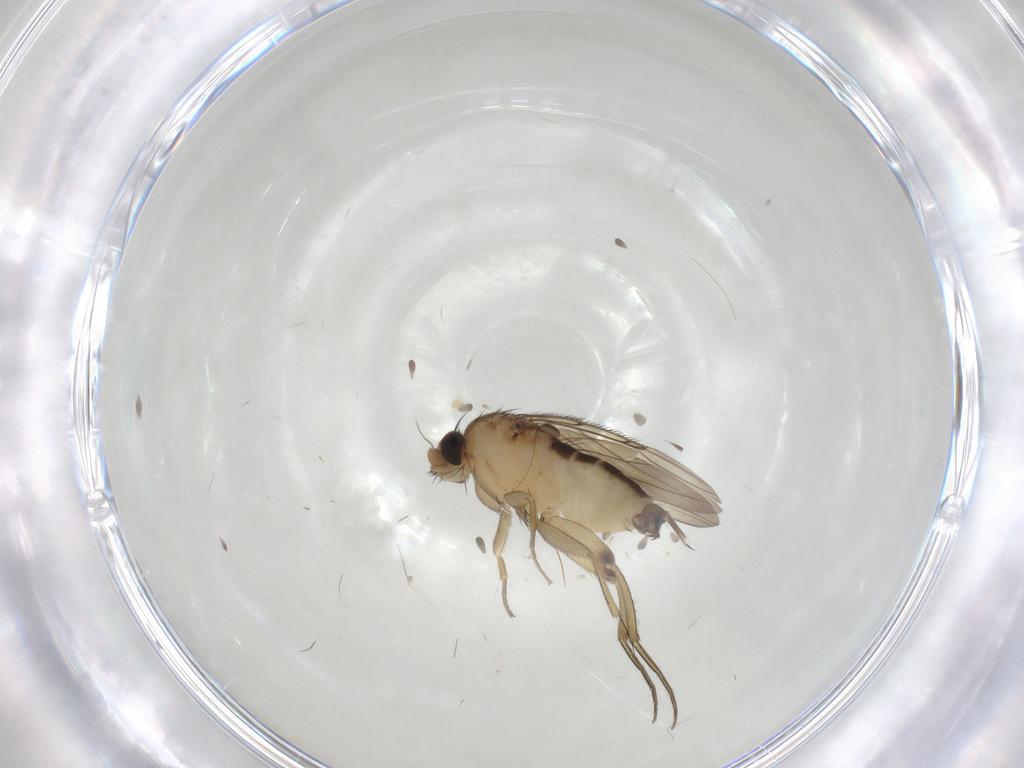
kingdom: Animalia
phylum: Arthropoda
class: Insecta
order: Diptera
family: Phoridae
